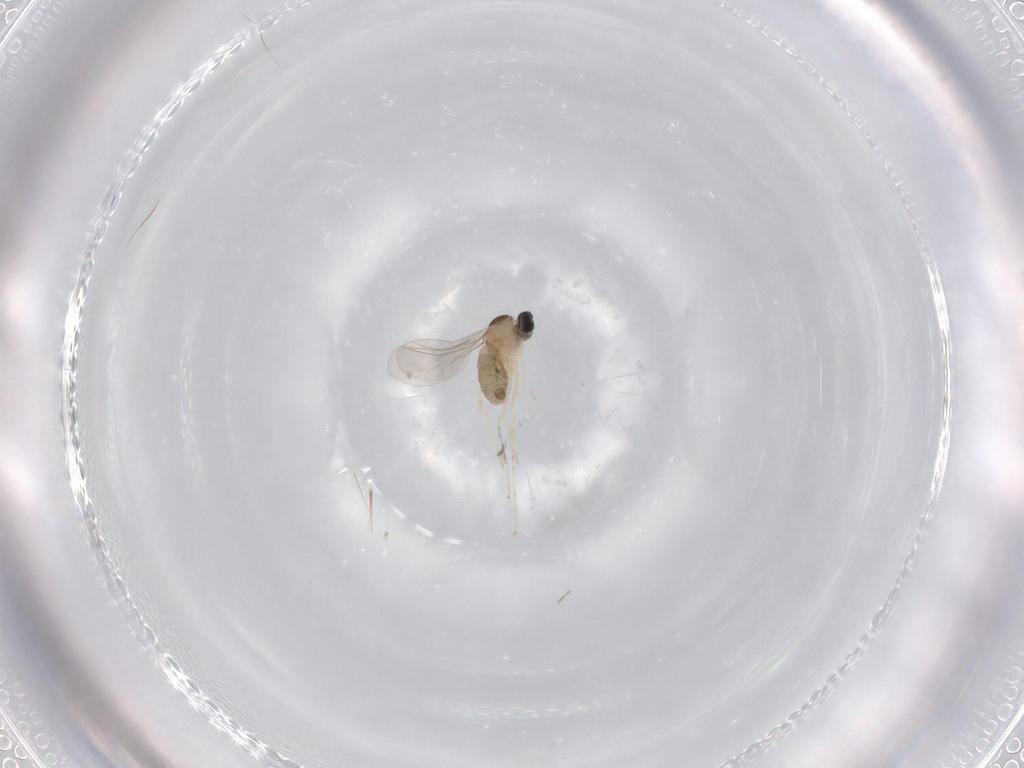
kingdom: Animalia
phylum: Arthropoda
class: Insecta
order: Diptera
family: Cecidomyiidae
